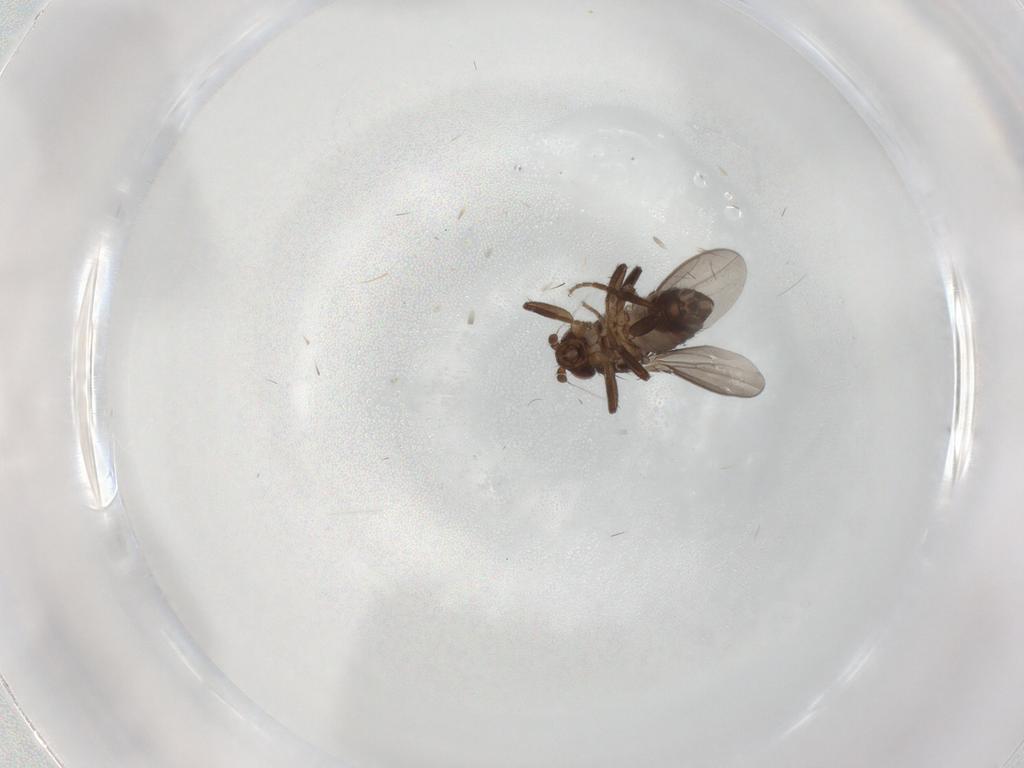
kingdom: Animalia
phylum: Arthropoda
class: Insecta
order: Diptera
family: Sphaeroceridae
